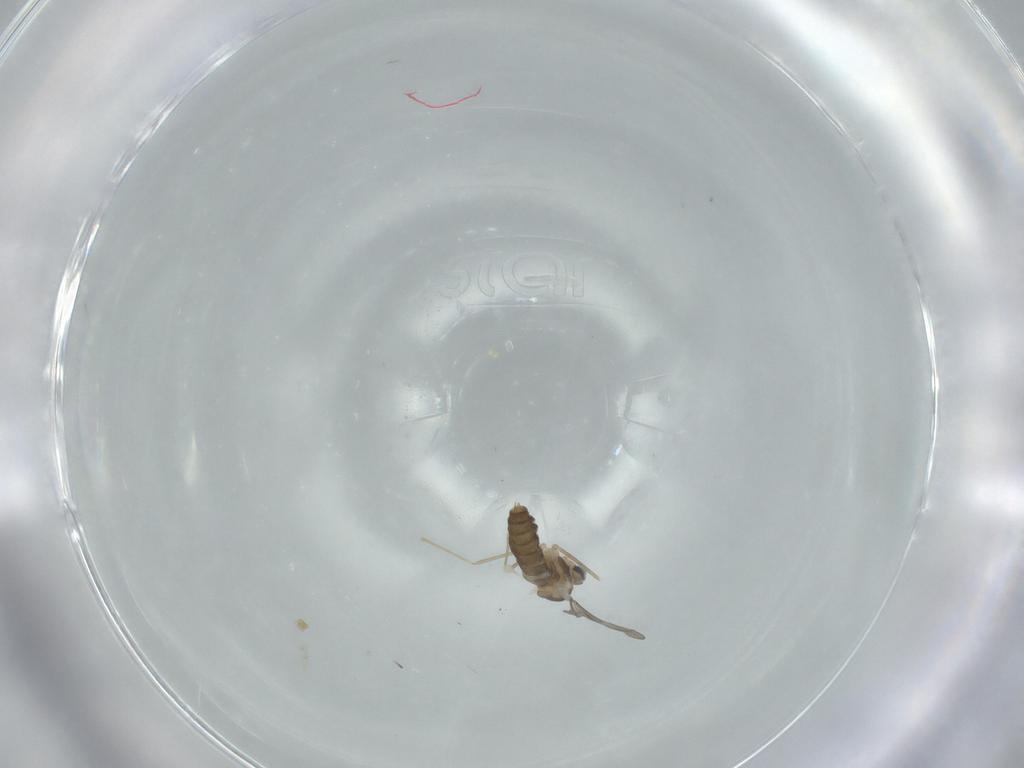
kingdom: Animalia
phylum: Arthropoda
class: Insecta
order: Diptera
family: Cecidomyiidae
